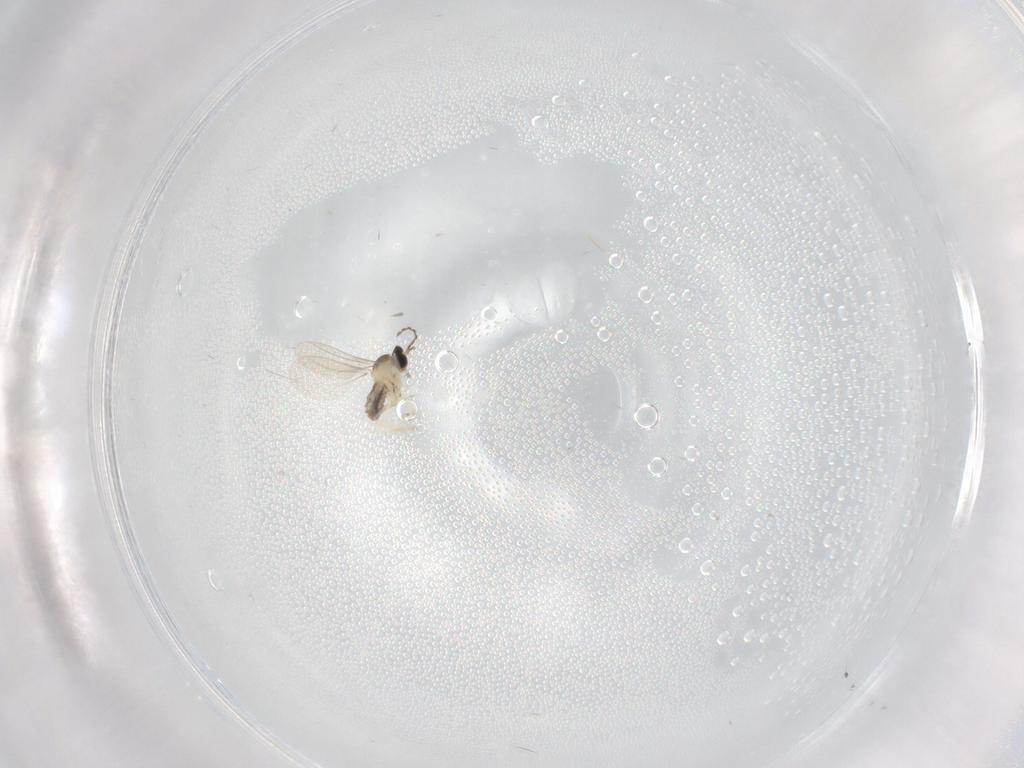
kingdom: Animalia
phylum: Arthropoda
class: Insecta
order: Diptera
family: Cecidomyiidae
